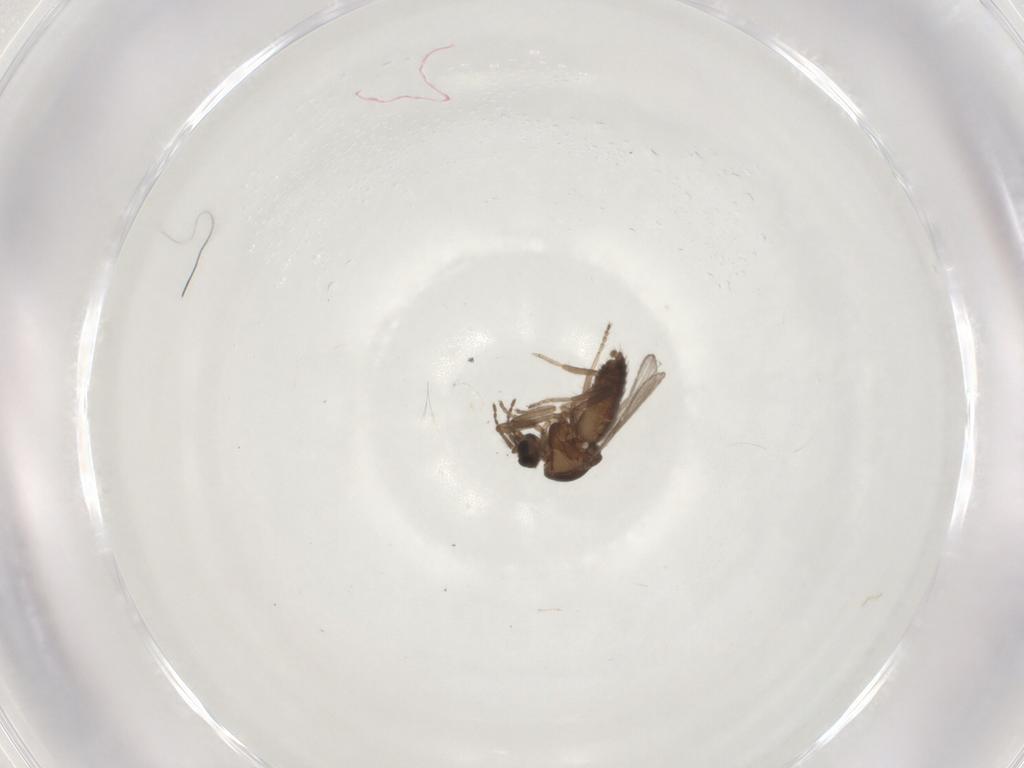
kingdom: Animalia
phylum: Arthropoda
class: Insecta
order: Diptera
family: Ceratopogonidae
